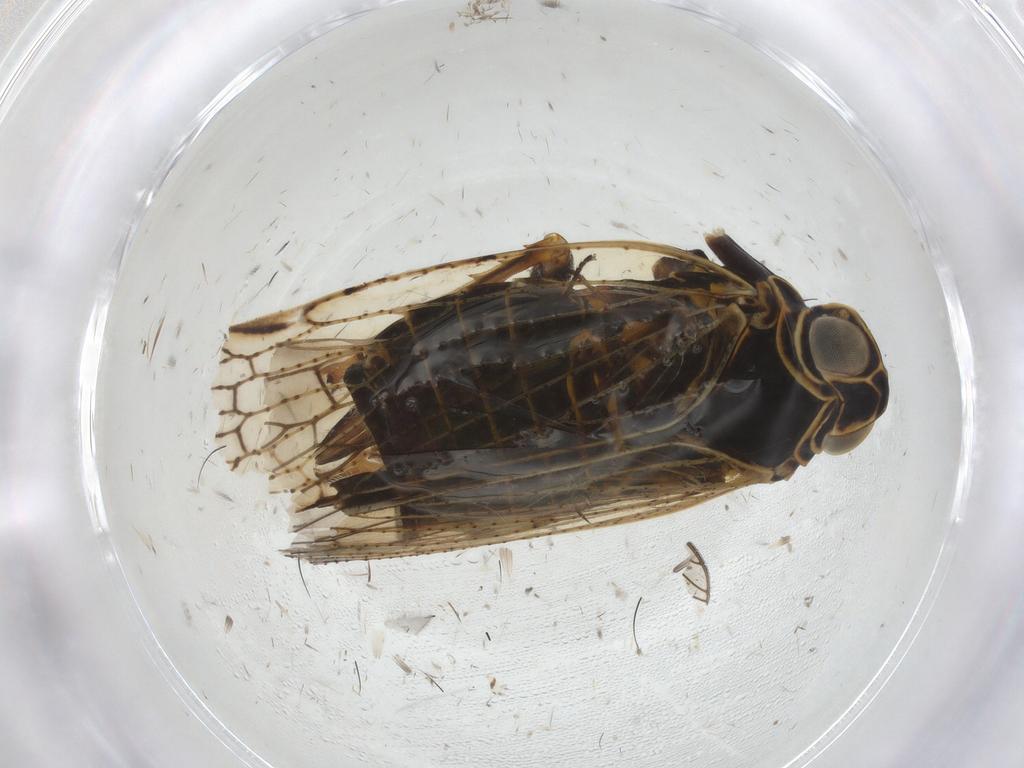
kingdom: Animalia
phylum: Arthropoda
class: Insecta
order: Hemiptera
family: Cixiidae
